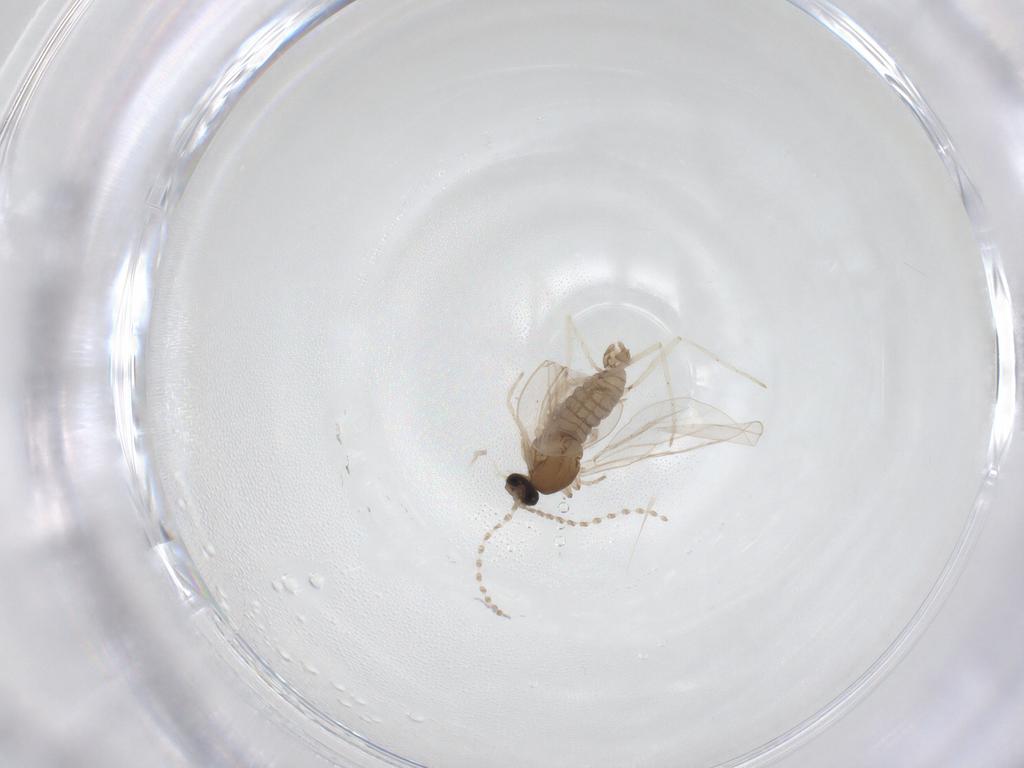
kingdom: Animalia
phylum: Arthropoda
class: Insecta
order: Diptera
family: Cecidomyiidae
